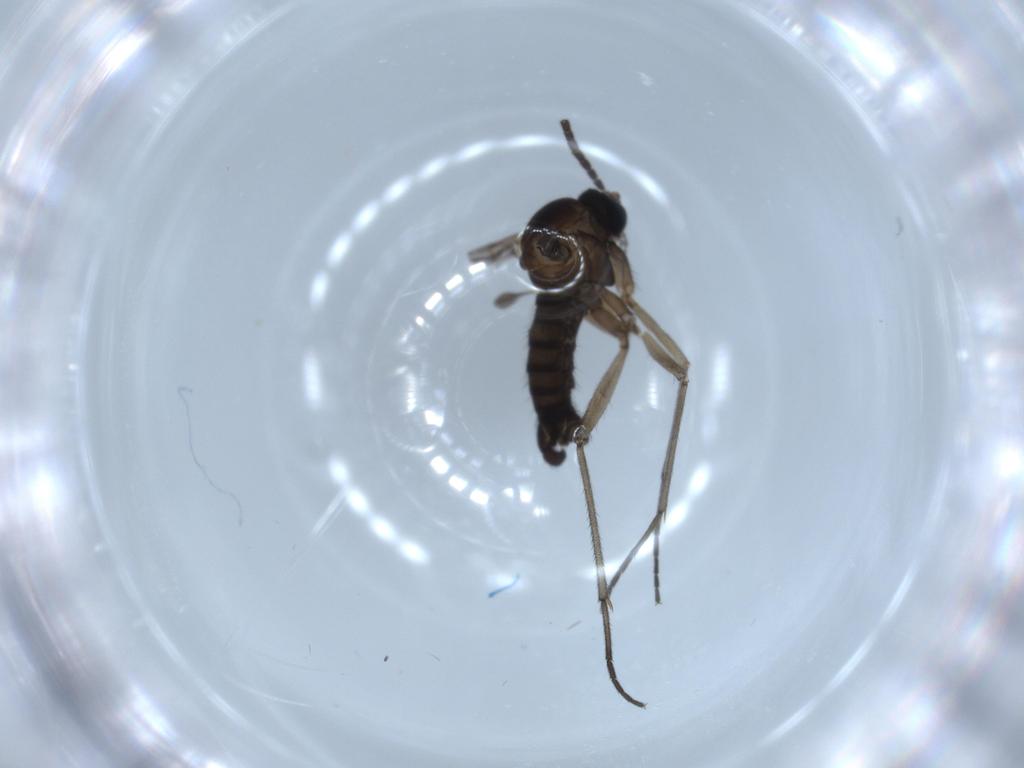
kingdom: Animalia
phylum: Arthropoda
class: Insecta
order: Diptera
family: Sciaridae
